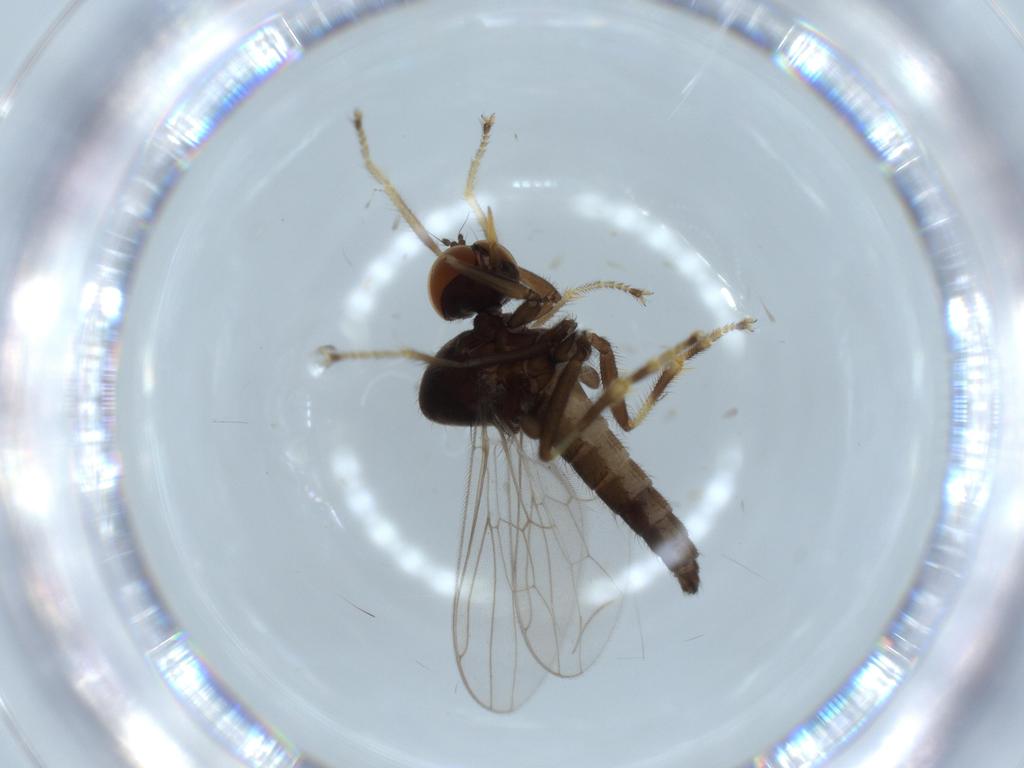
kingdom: Animalia
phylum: Arthropoda
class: Insecta
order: Diptera
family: Hybotidae
